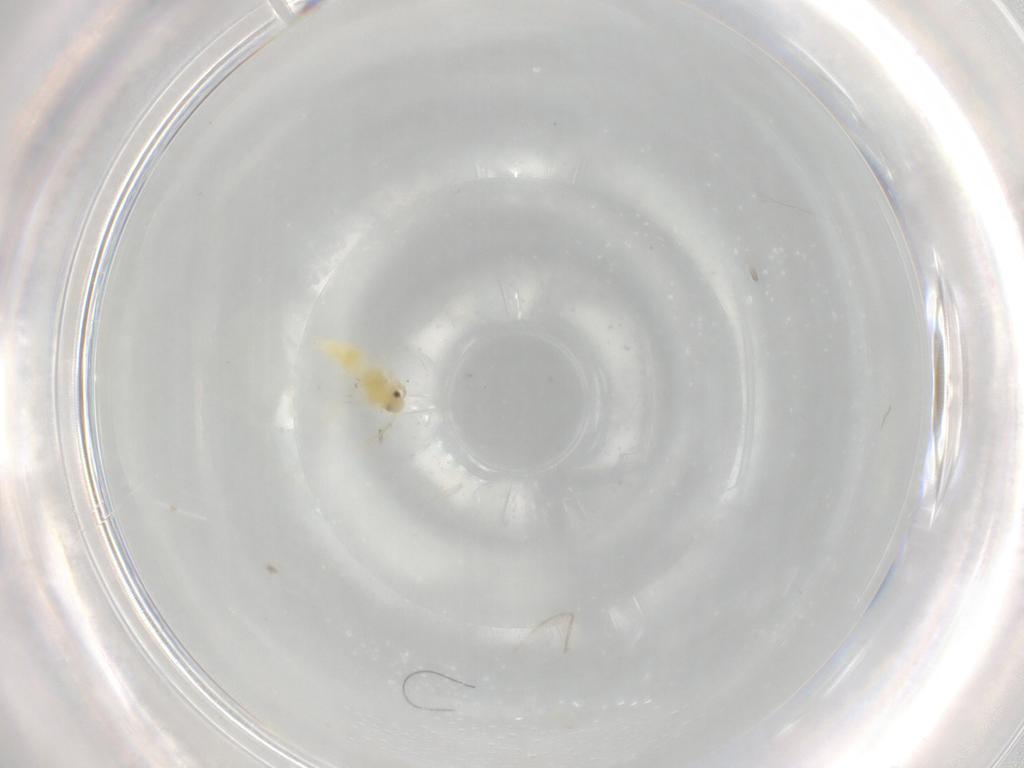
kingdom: Animalia
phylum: Arthropoda
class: Insecta
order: Hemiptera
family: Aleyrodidae
